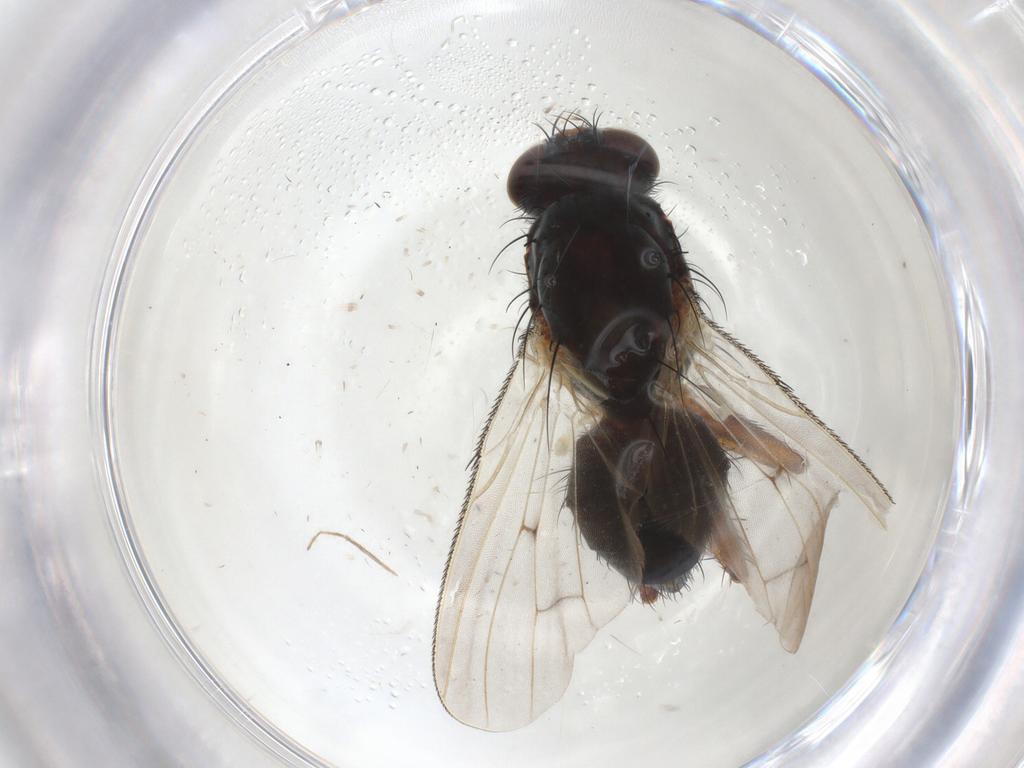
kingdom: Animalia
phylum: Arthropoda
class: Insecta
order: Diptera
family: Anthomyiidae
